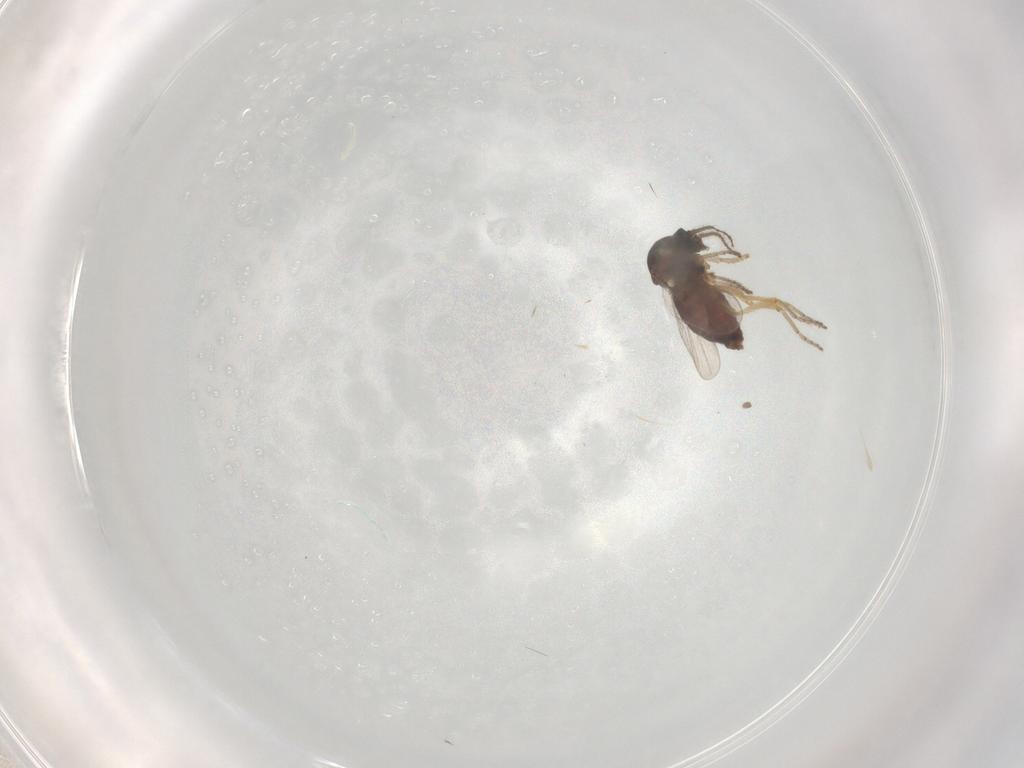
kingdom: Animalia
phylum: Arthropoda
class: Insecta
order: Diptera
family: Ceratopogonidae
